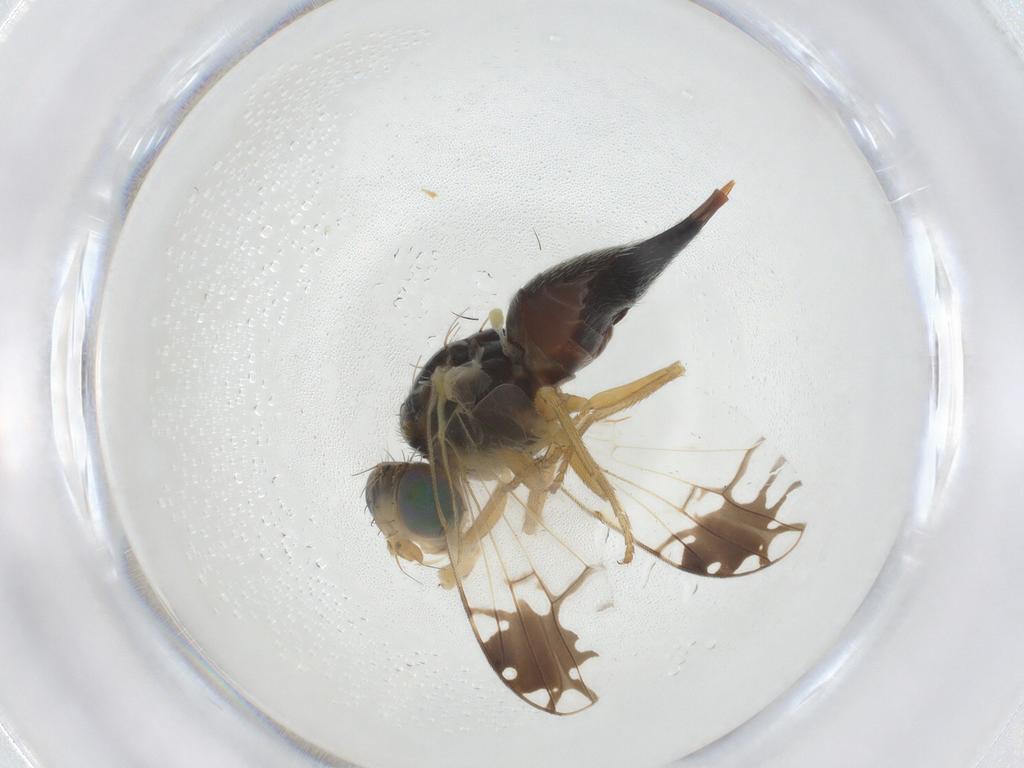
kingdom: Animalia
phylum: Arthropoda
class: Insecta
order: Diptera
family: Tephritidae
